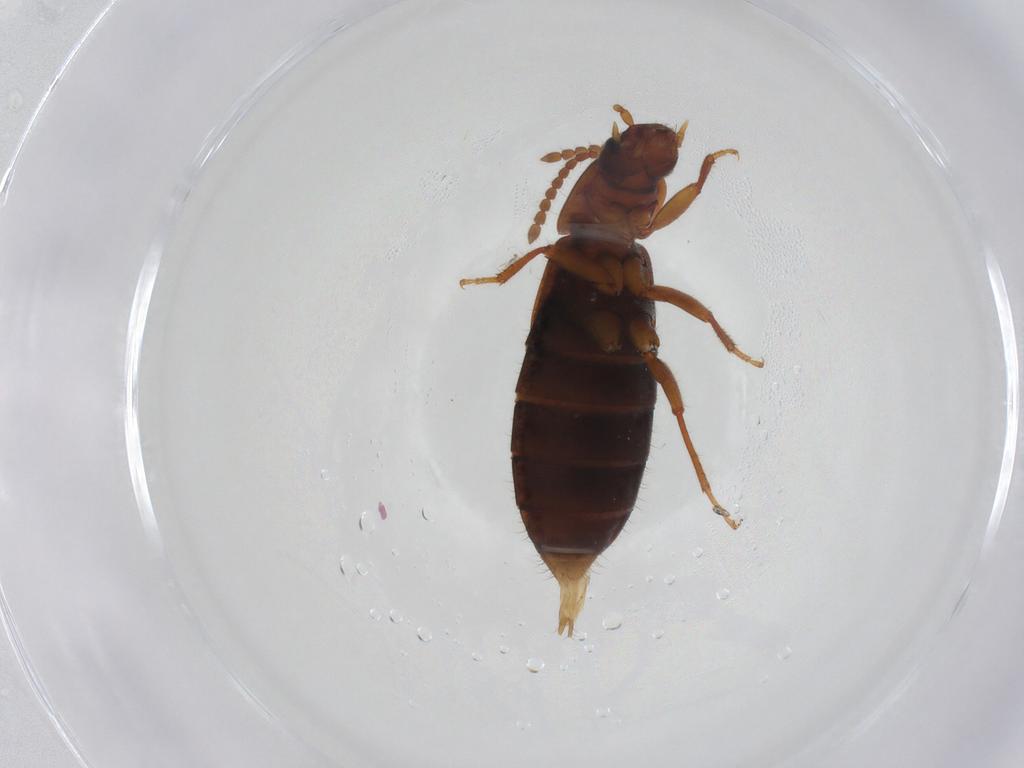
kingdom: Animalia
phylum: Arthropoda
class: Insecta
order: Coleoptera
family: Staphylinidae
